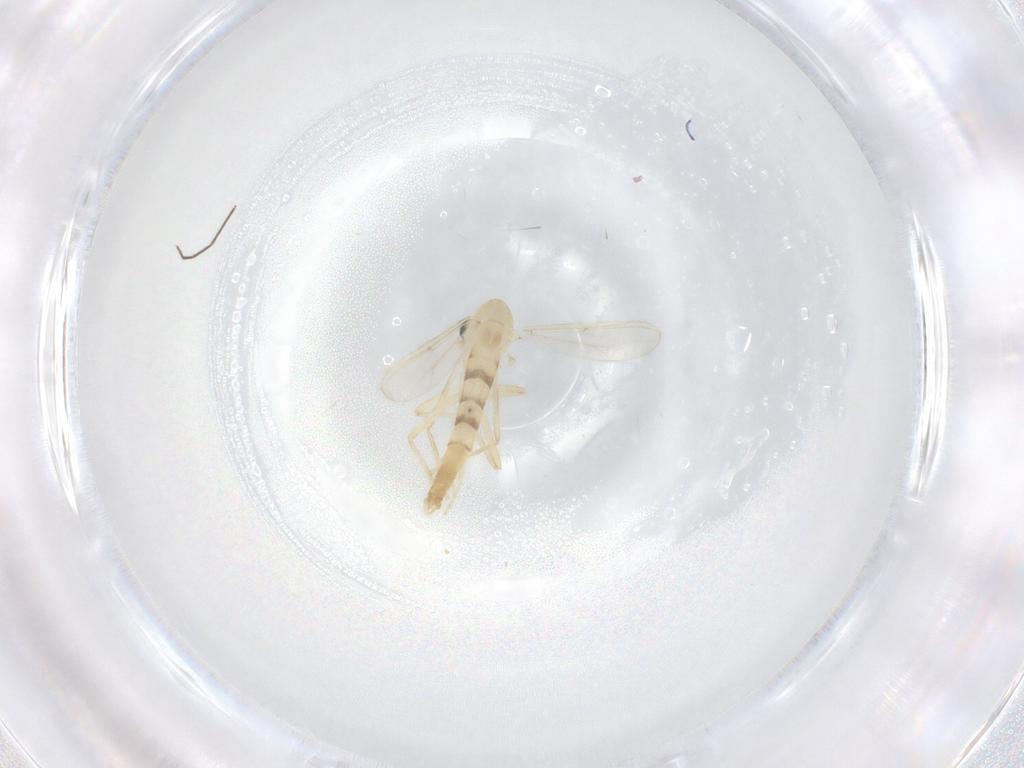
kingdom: Animalia
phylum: Arthropoda
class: Insecta
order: Diptera
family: Chironomidae
